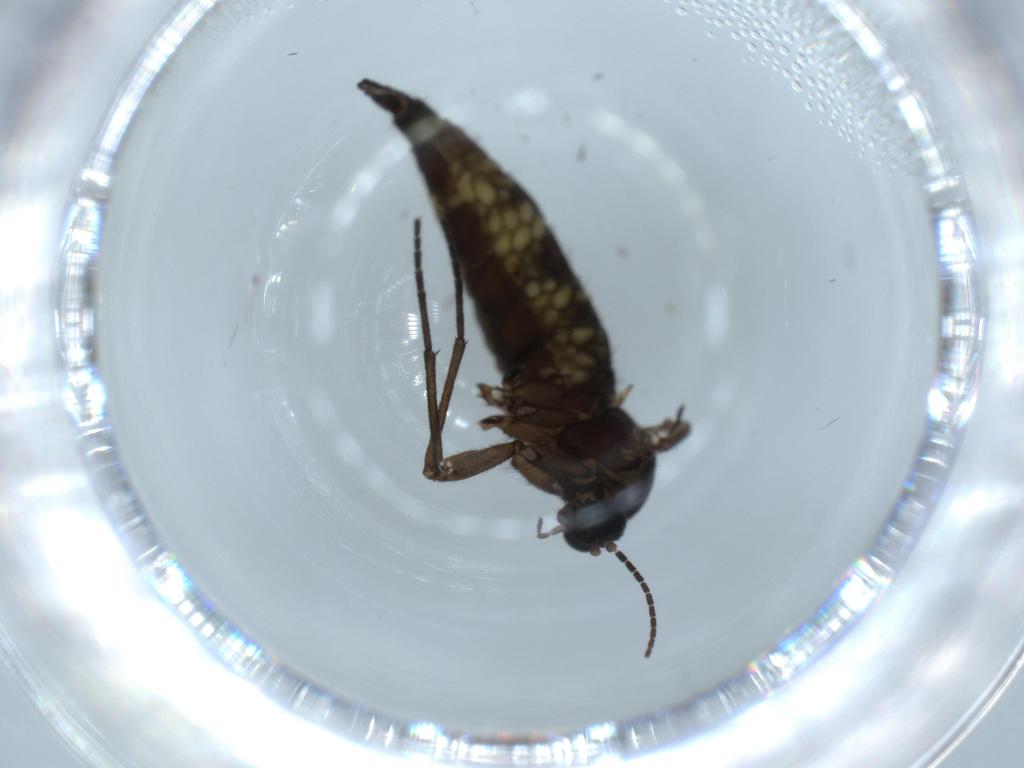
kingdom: Animalia
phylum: Arthropoda
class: Insecta
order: Diptera
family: Sciaridae
